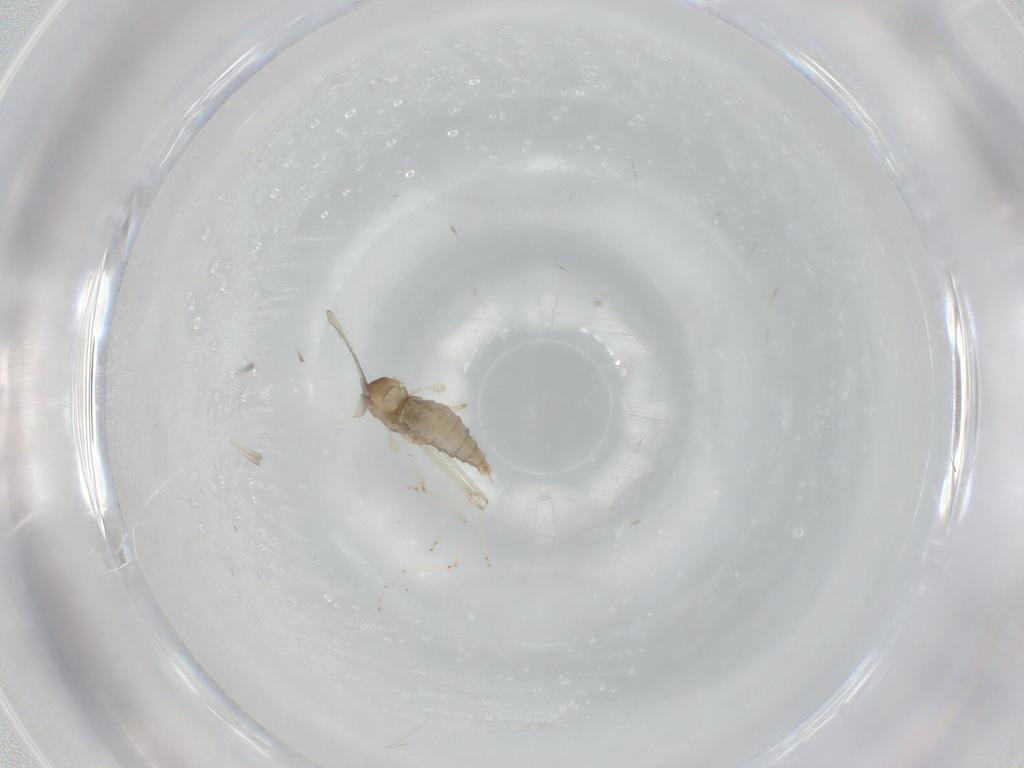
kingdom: Animalia
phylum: Arthropoda
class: Insecta
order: Diptera
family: Cecidomyiidae
